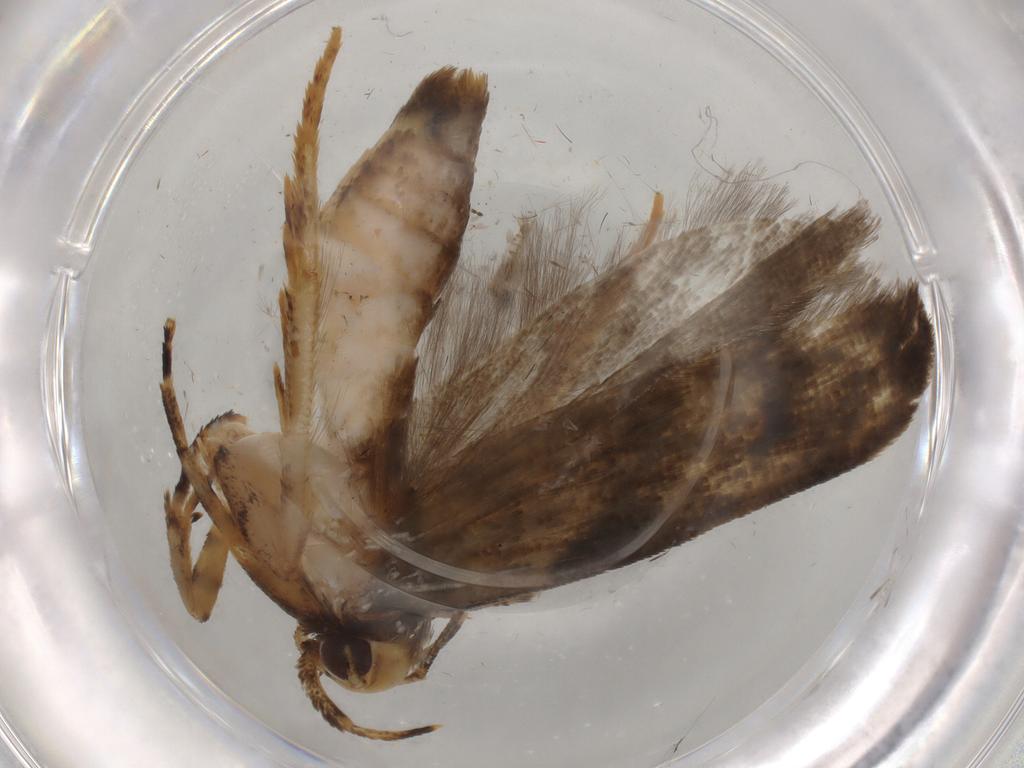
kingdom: Animalia
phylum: Arthropoda
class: Insecta
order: Lepidoptera
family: Gelechiidae
